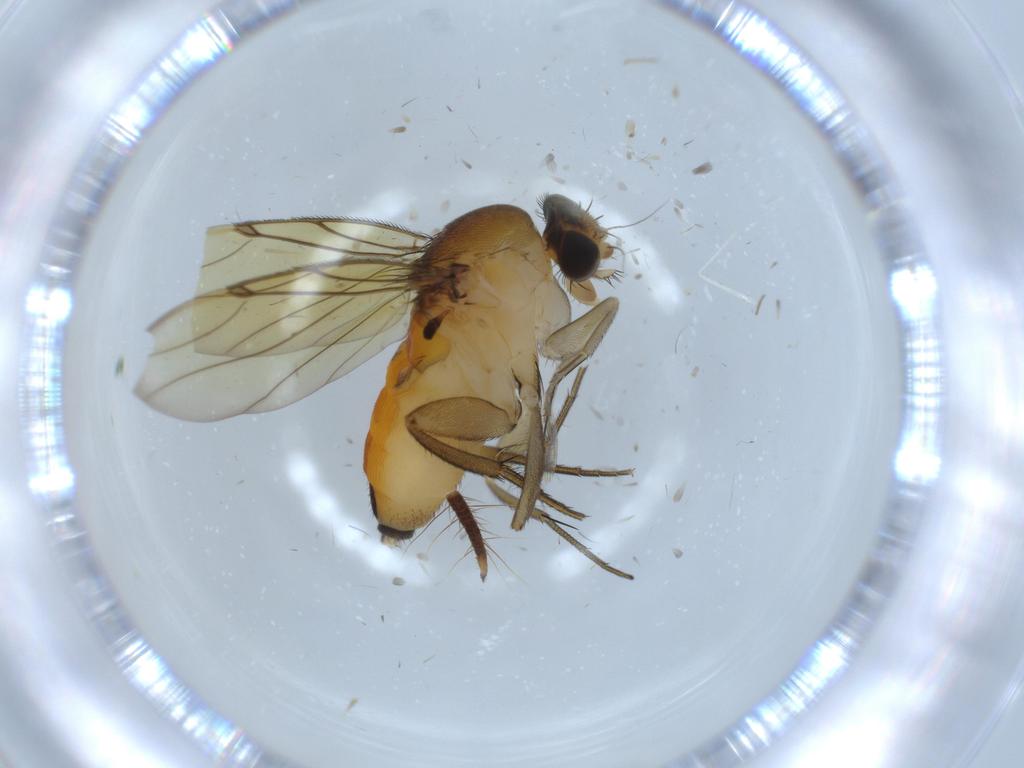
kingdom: Animalia
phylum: Arthropoda
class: Insecta
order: Diptera
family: Chironomidae
